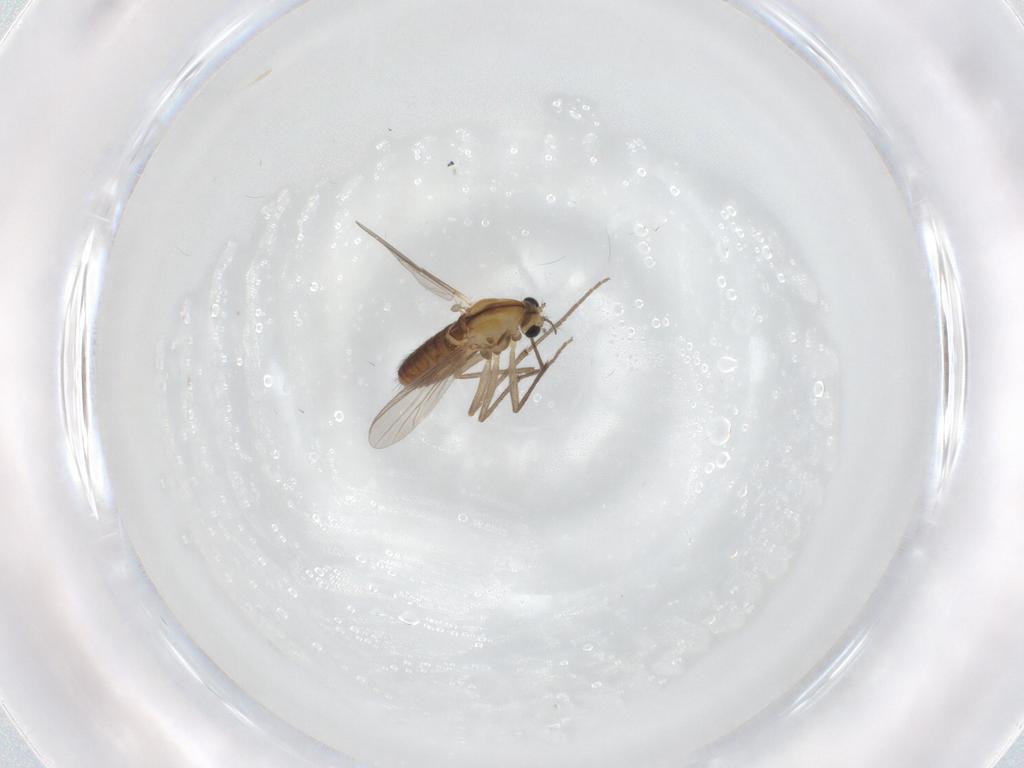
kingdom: Animalia
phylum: Arthropoda
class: Insecta
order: Diptera
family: Chironomidae
